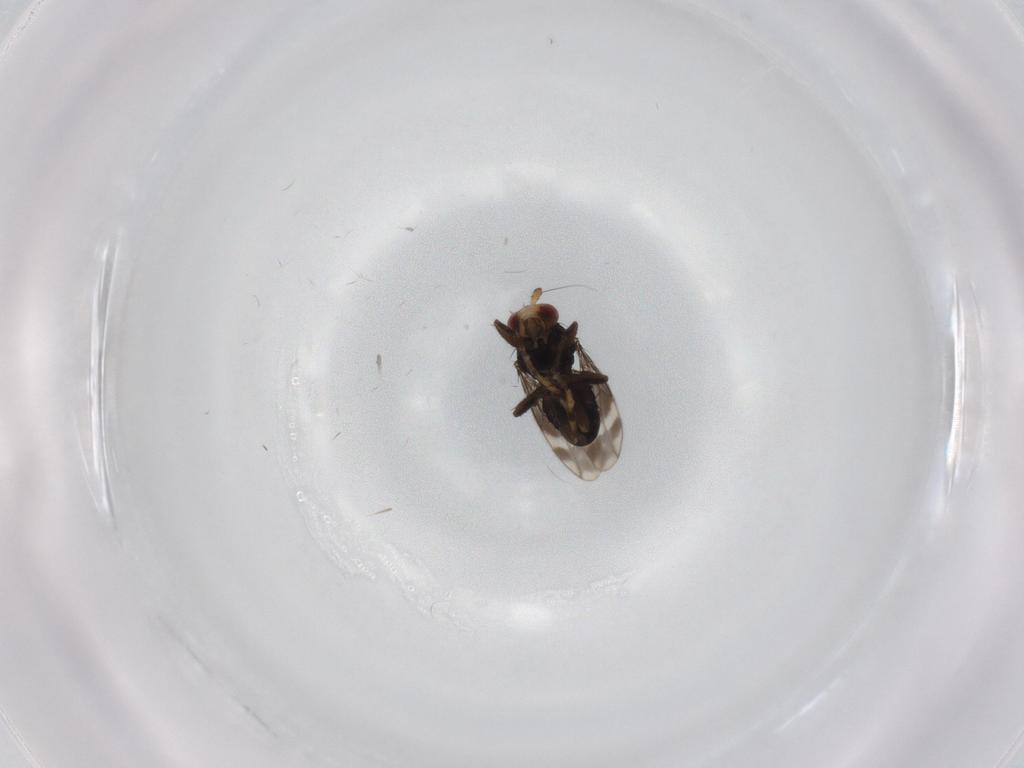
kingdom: Animalia
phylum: Arthropoda
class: Insecta
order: Diptera
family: Sphaeroceridae
